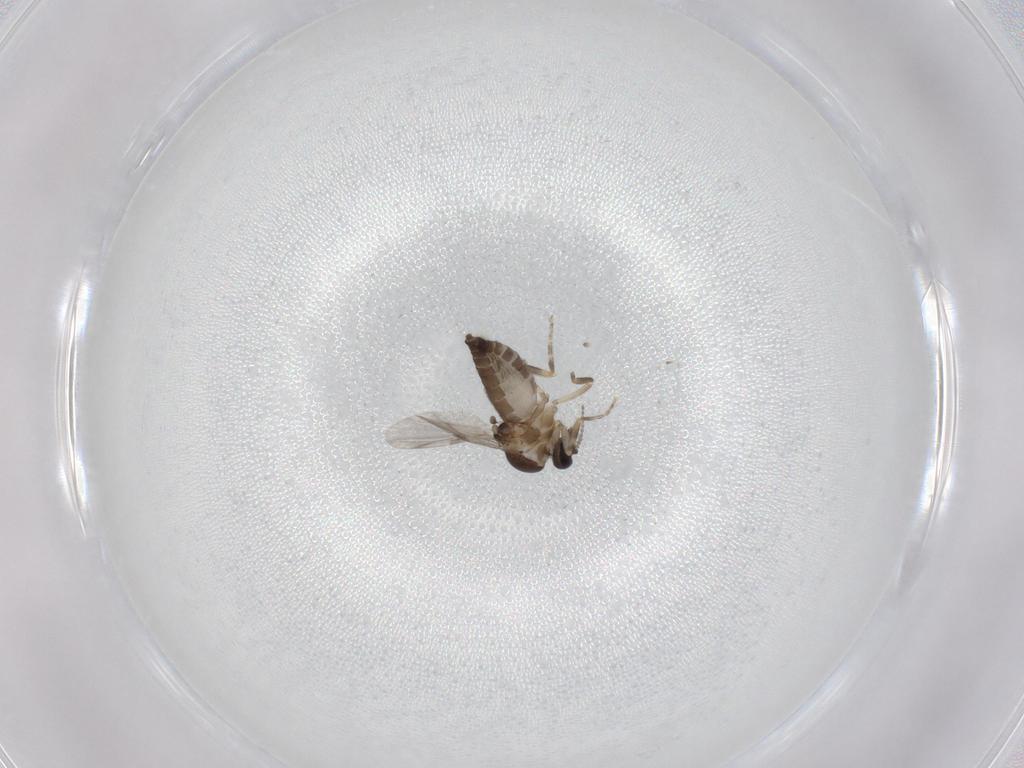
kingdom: Animalia
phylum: Arthropoda
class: Insecta
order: Diptera
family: Ceratopogonidae
